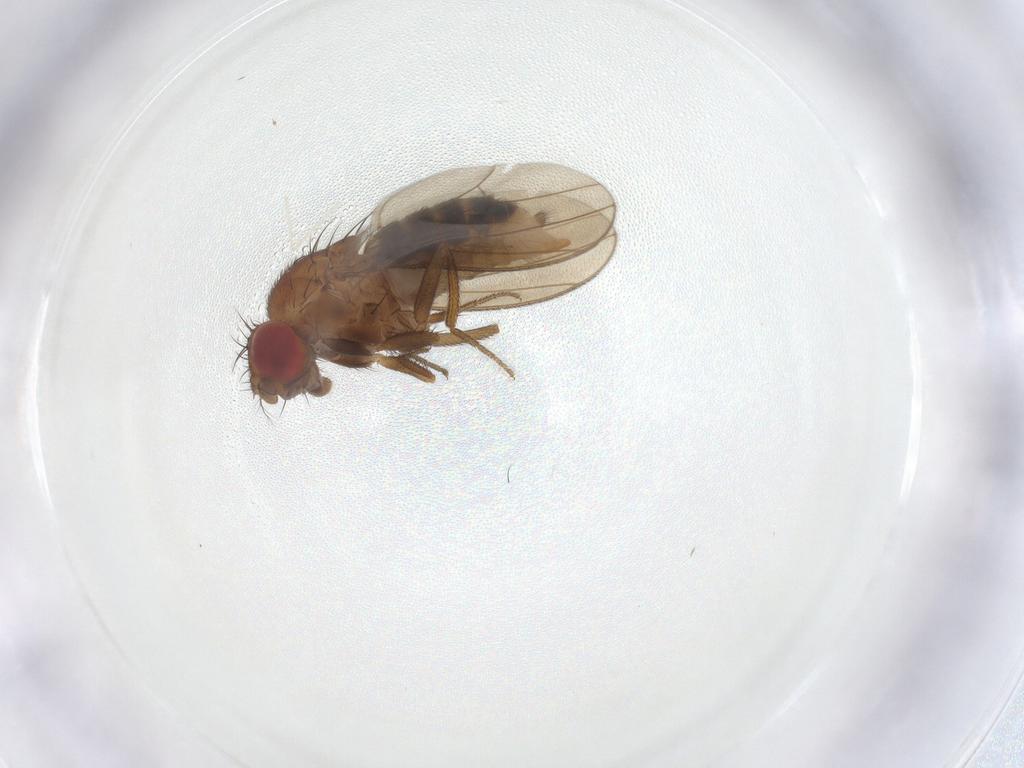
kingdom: Animalia
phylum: Arthropoda
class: Insecta
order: Diptera
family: Drosophilidae
